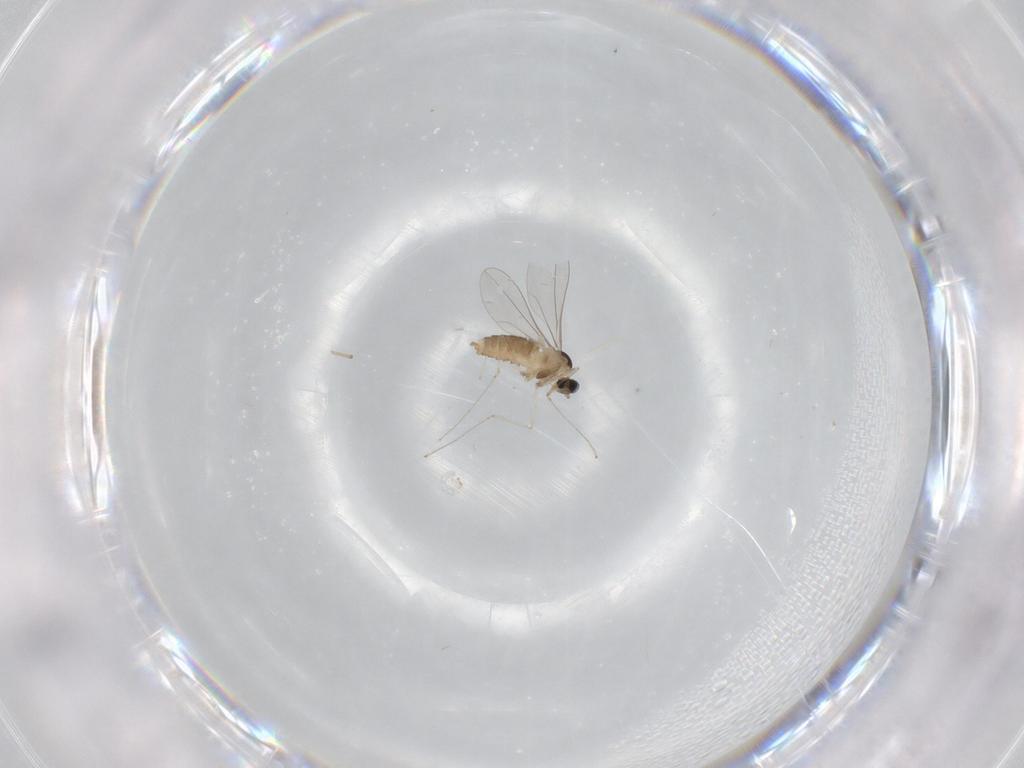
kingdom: Animalia
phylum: Arthropoda
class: Insecta
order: Diptera
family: Cecidomyiidae
